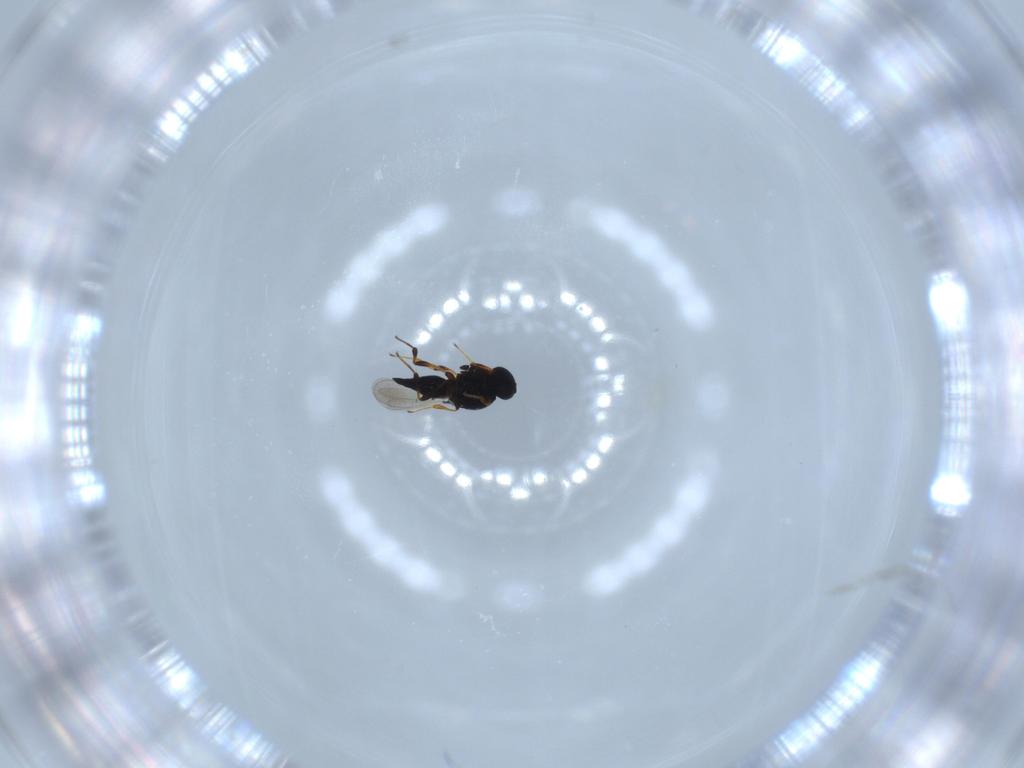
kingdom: Animalia
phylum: Arthropoda
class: Insecta
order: Hymenoptera
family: Platygastridae
